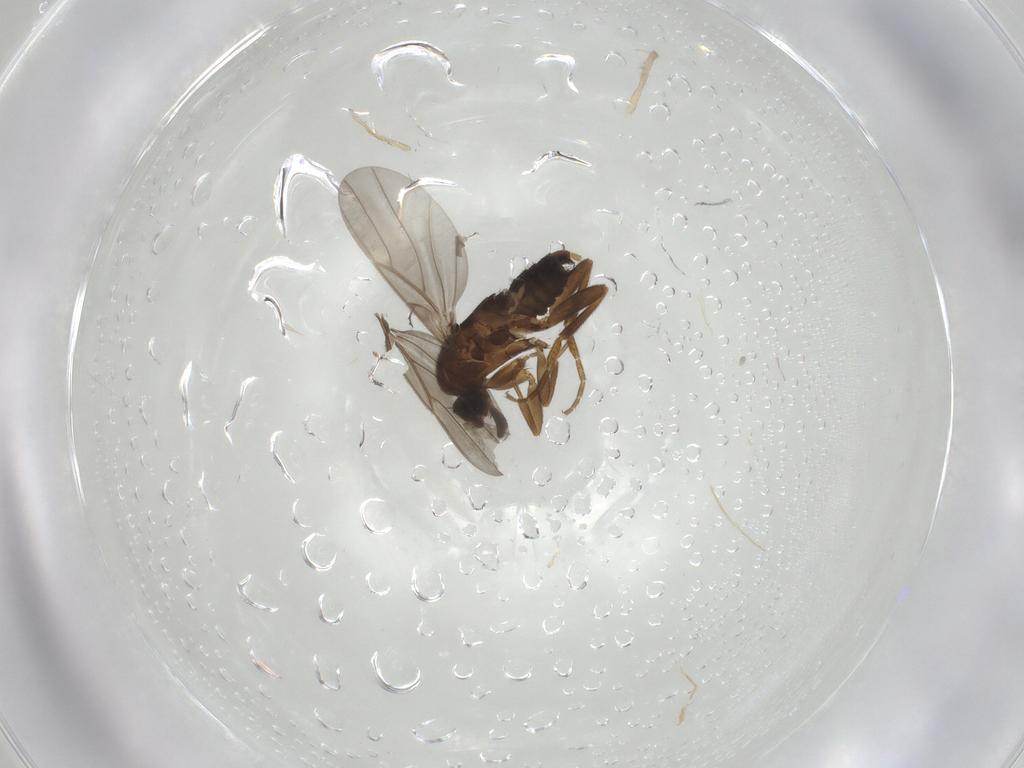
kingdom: Animalia
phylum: Arthropoda
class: Insecta
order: Diptera
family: Phoridae
